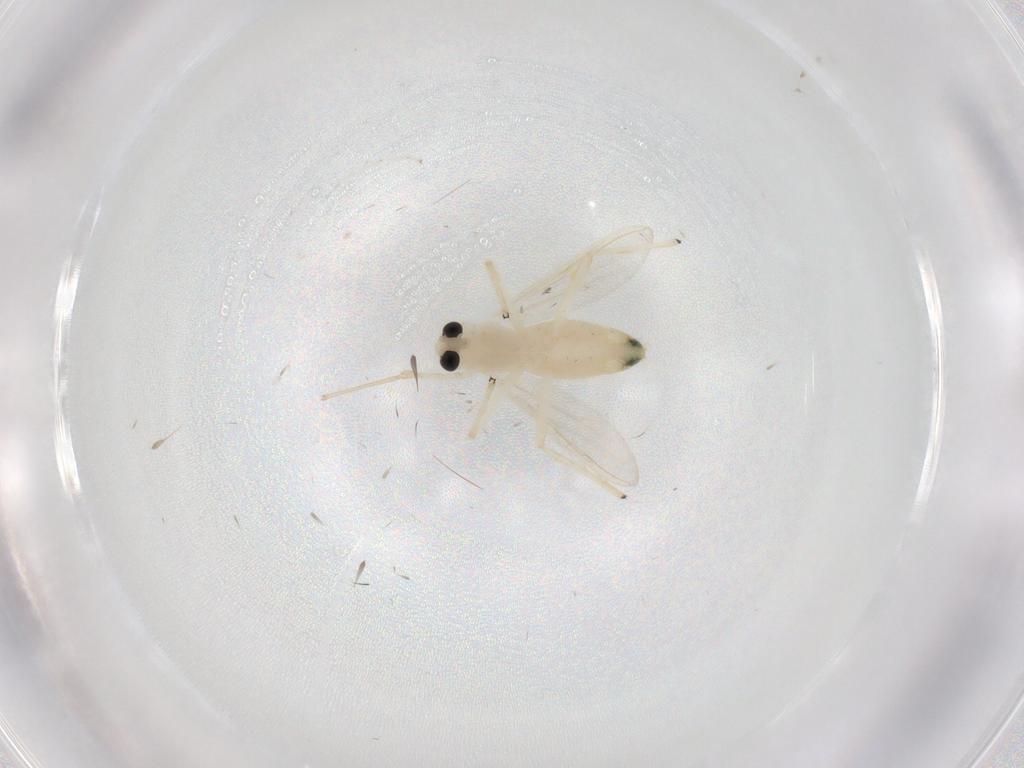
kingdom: Animalia
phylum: Arthropoda
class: Insecta
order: Diptera
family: Chironomidae
